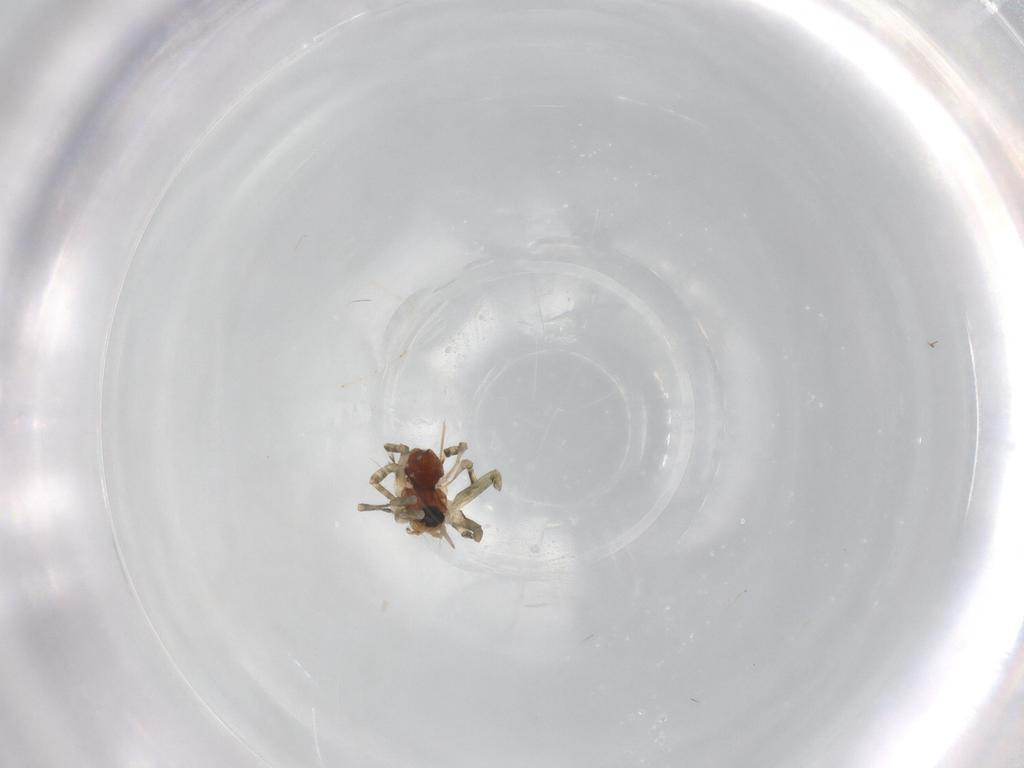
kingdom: Animalia
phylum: Arthropoda
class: Arachnida
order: Araneae
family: Linyphiidae
